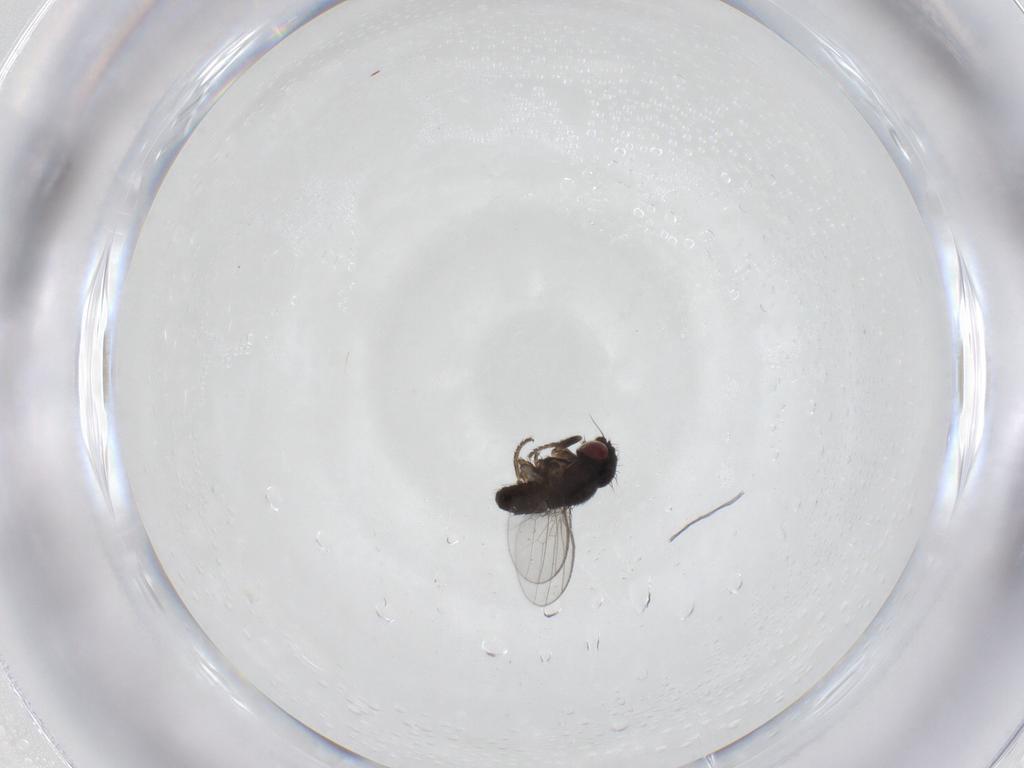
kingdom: Animalia
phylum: Arthropoda
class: Insecta
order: Diptera
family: Milichiidae
